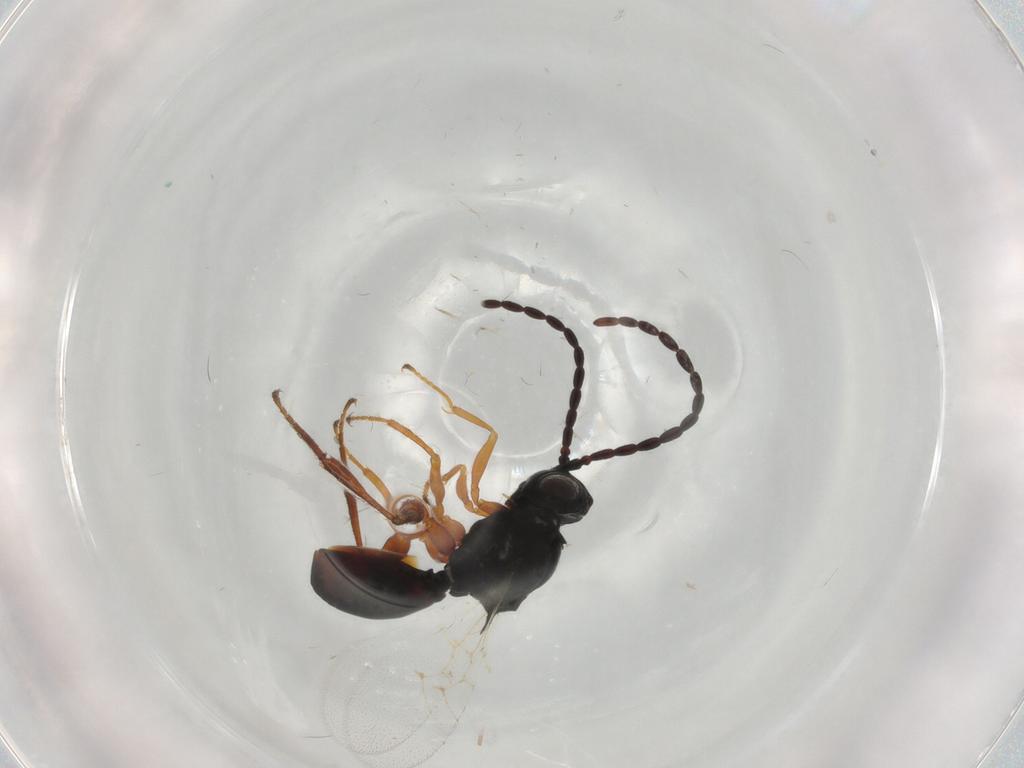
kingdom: Animalia
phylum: Arthropoda
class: Insecta
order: Hymenoptera
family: Figitidae
